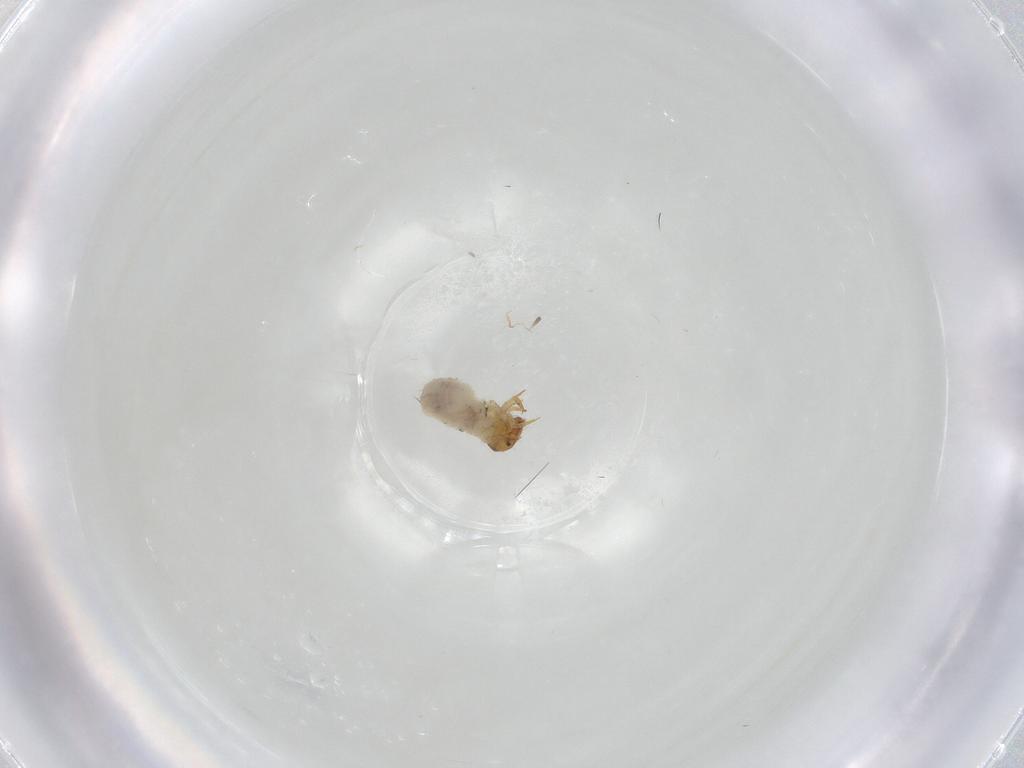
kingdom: Animalia
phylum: Arthropoda
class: Insecta
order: Coleoptera
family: Chrysomelidae
